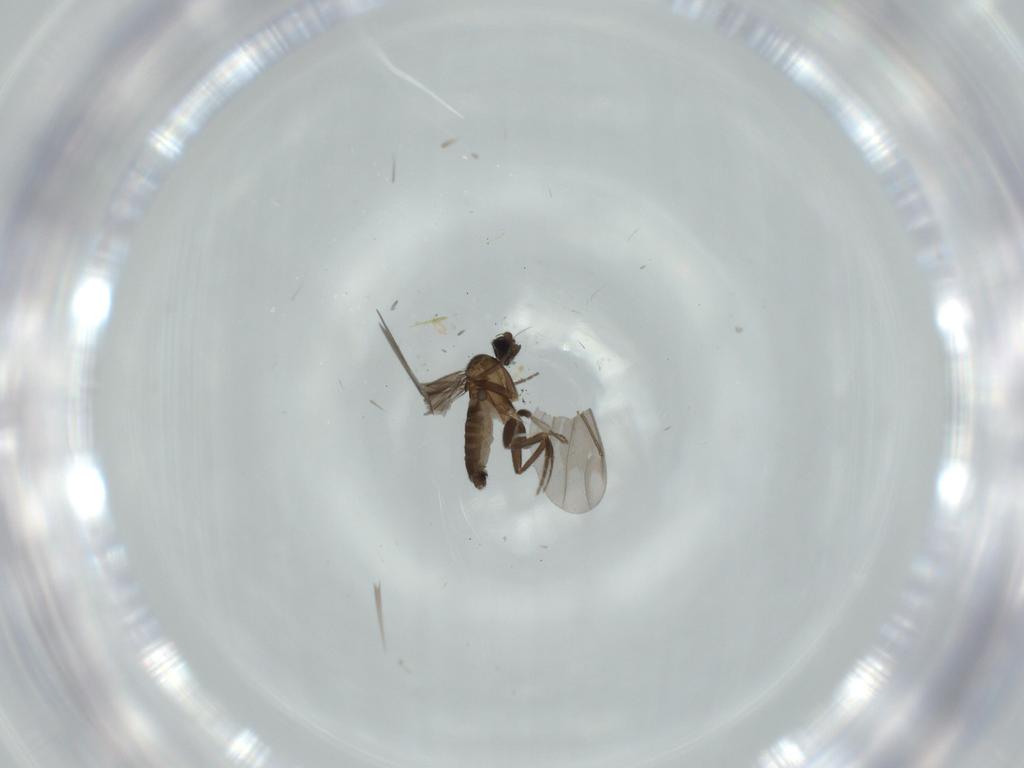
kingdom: Animalia
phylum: Arthropoda
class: Insecta
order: Diptera
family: Phoridae
